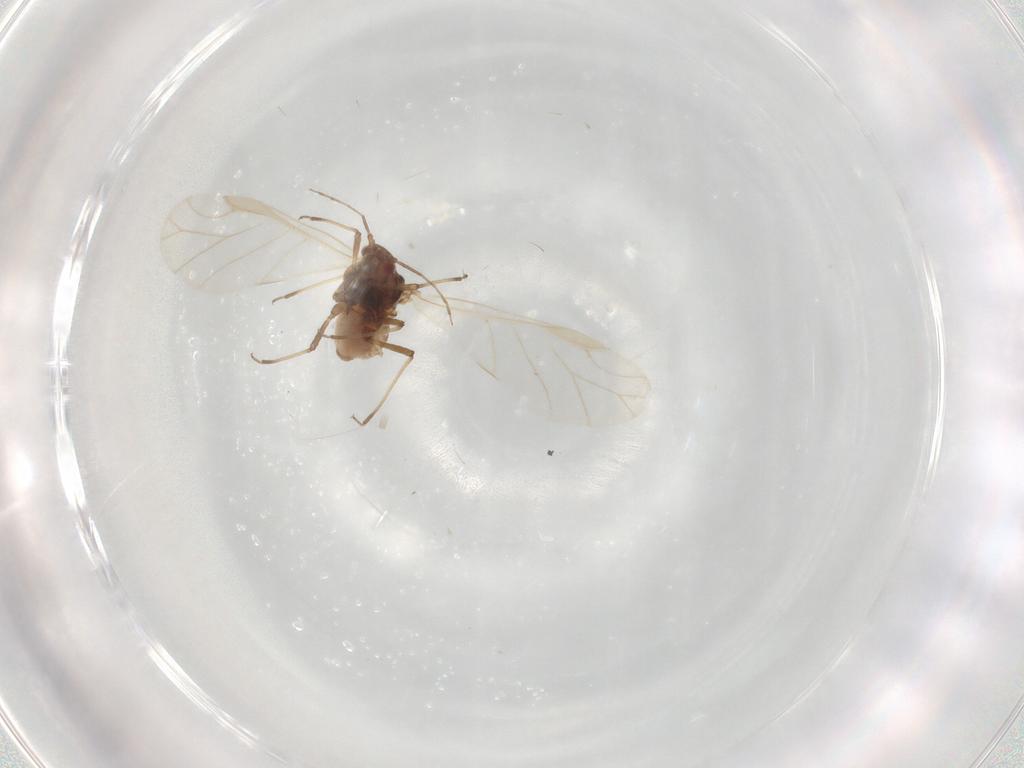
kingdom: Animalia
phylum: Arthropoda
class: Insecta
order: Hemiptera
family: Aphididae
